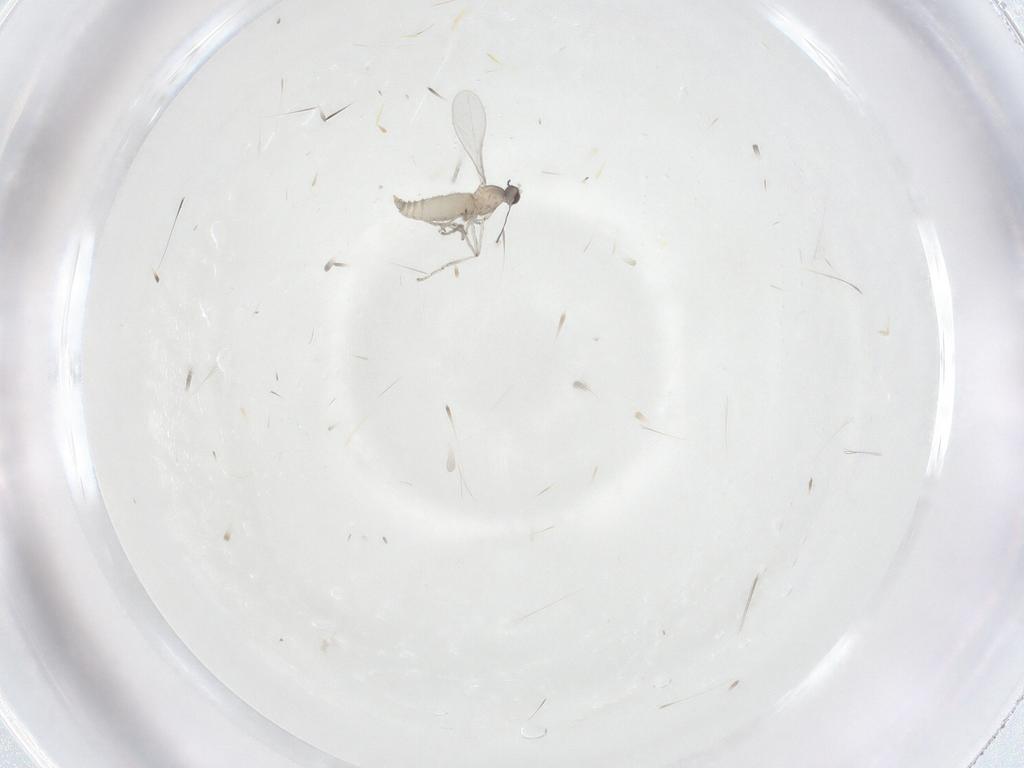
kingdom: Animalia
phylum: Arthropoda
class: Insecta
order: Diptera
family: Cecidomyiidae
